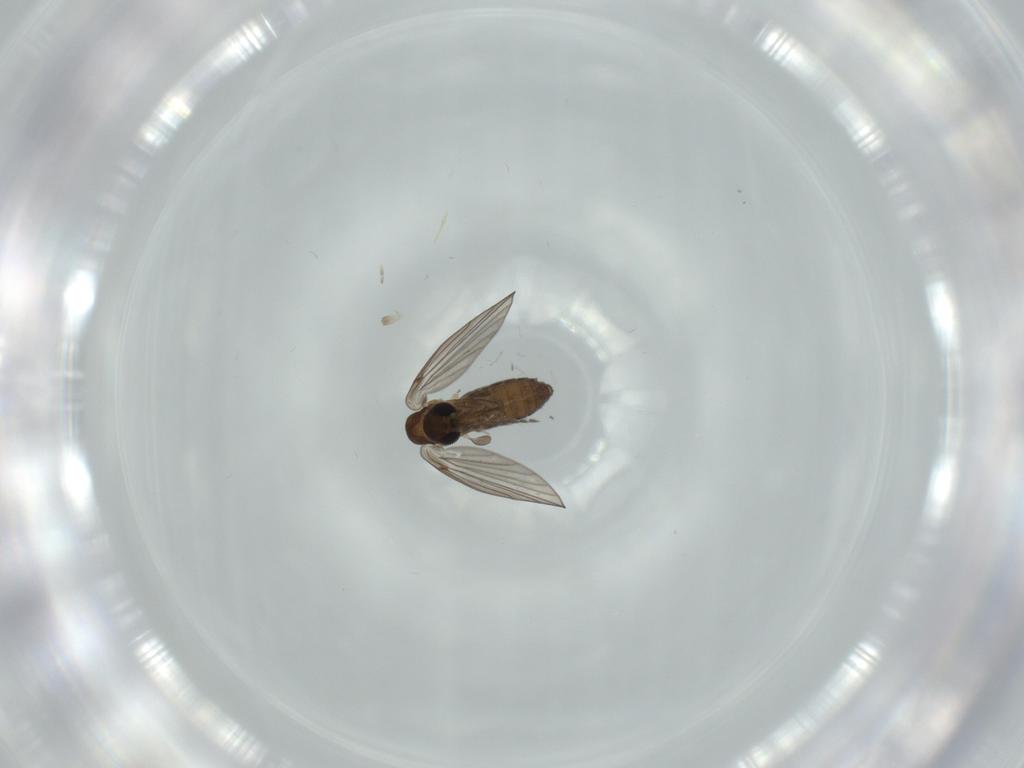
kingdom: Animalia
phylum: Arthropoda
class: Insecta
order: Diptera
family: Psychodidae
